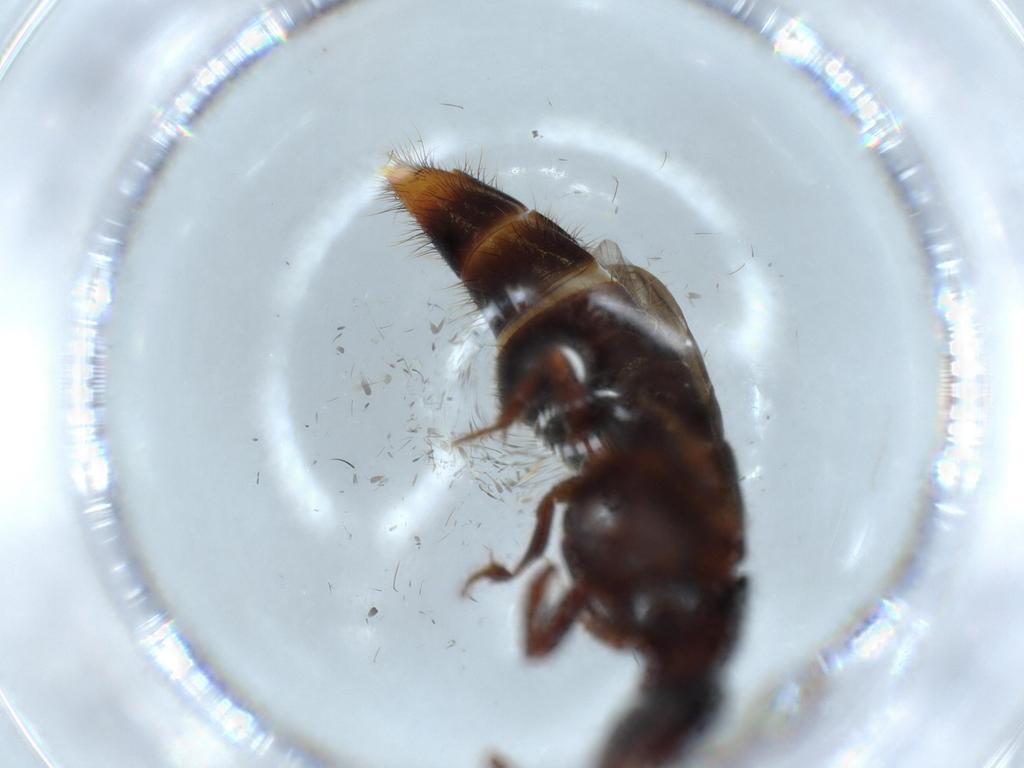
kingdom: Animalia
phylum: Arthropoda
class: Insecta
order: Coleoptera
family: Staphylinidae
